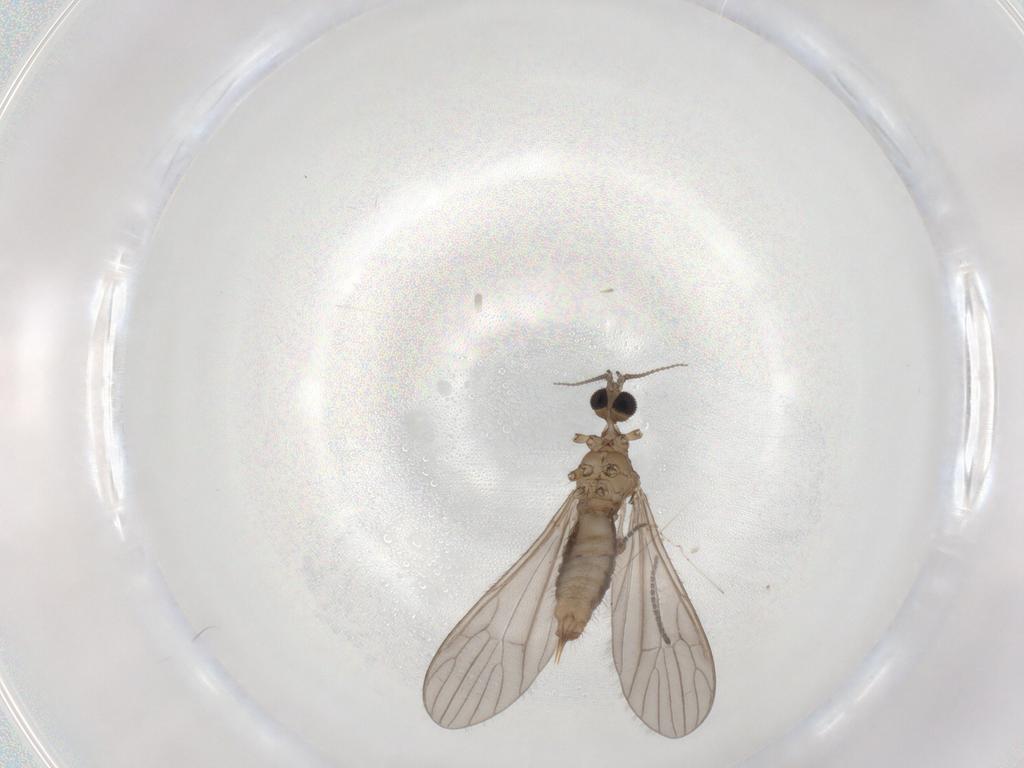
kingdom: Animalia
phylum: Arthropoda
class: Insecta
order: Diptera
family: Limoniidae
